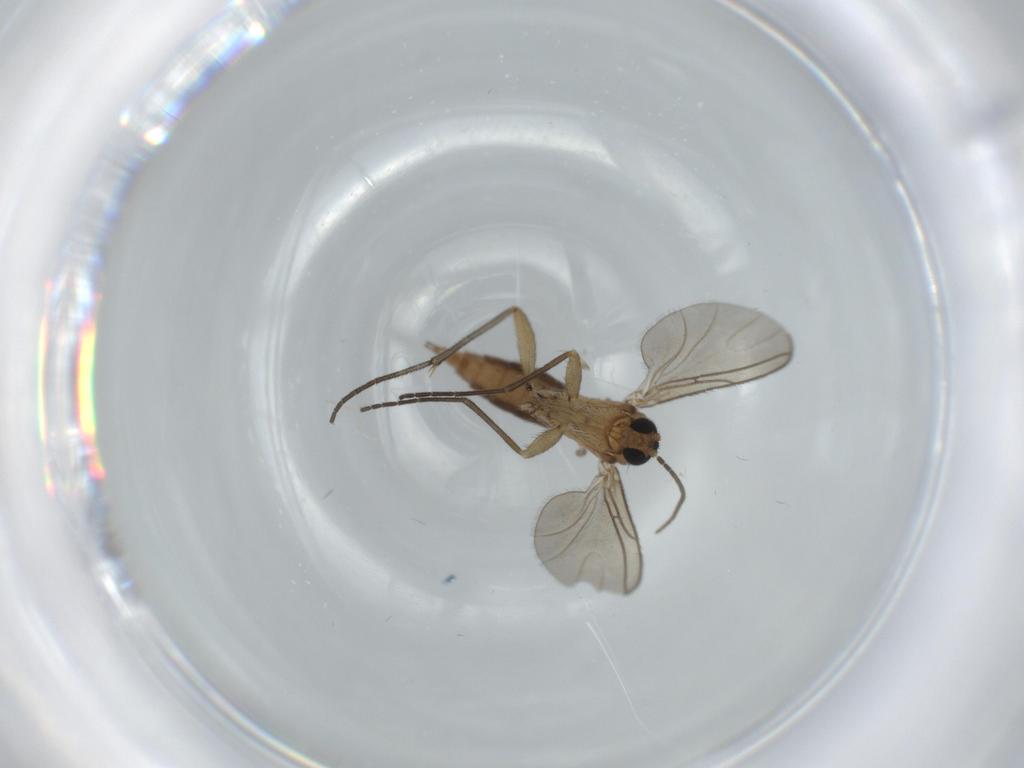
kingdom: Animalia
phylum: Arthropoda
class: Insecta
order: Diptera
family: Sciaridae
